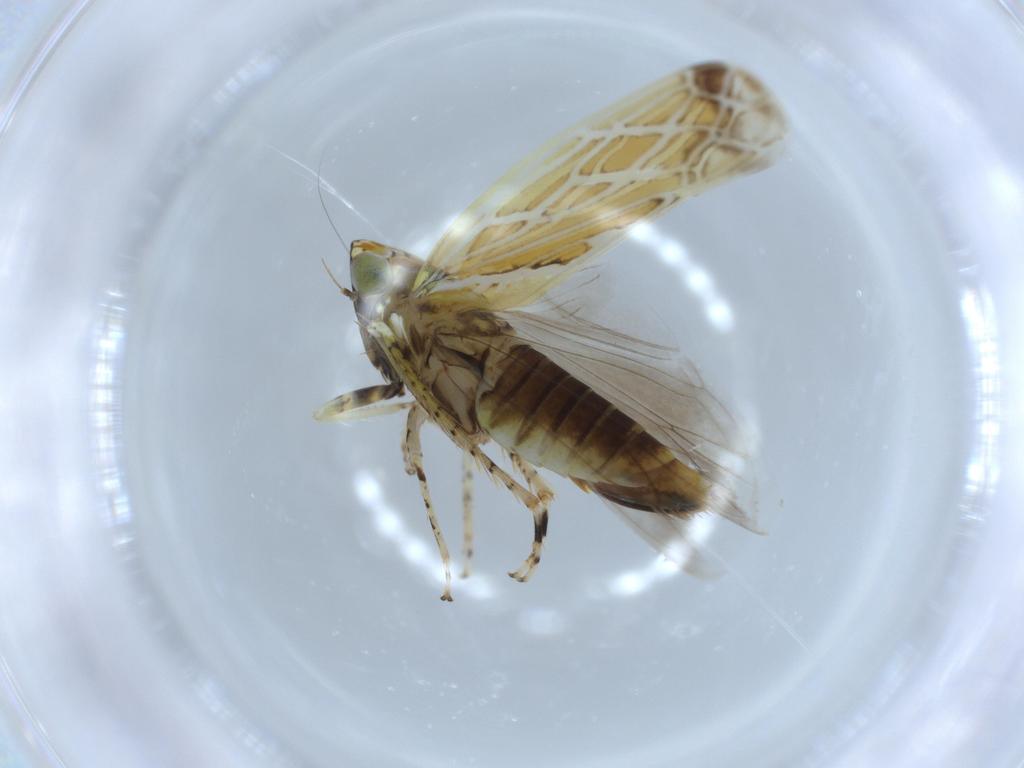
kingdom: Animalia
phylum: Arthropoda
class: Insecta
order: Hemiptera
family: Cicadellidae
